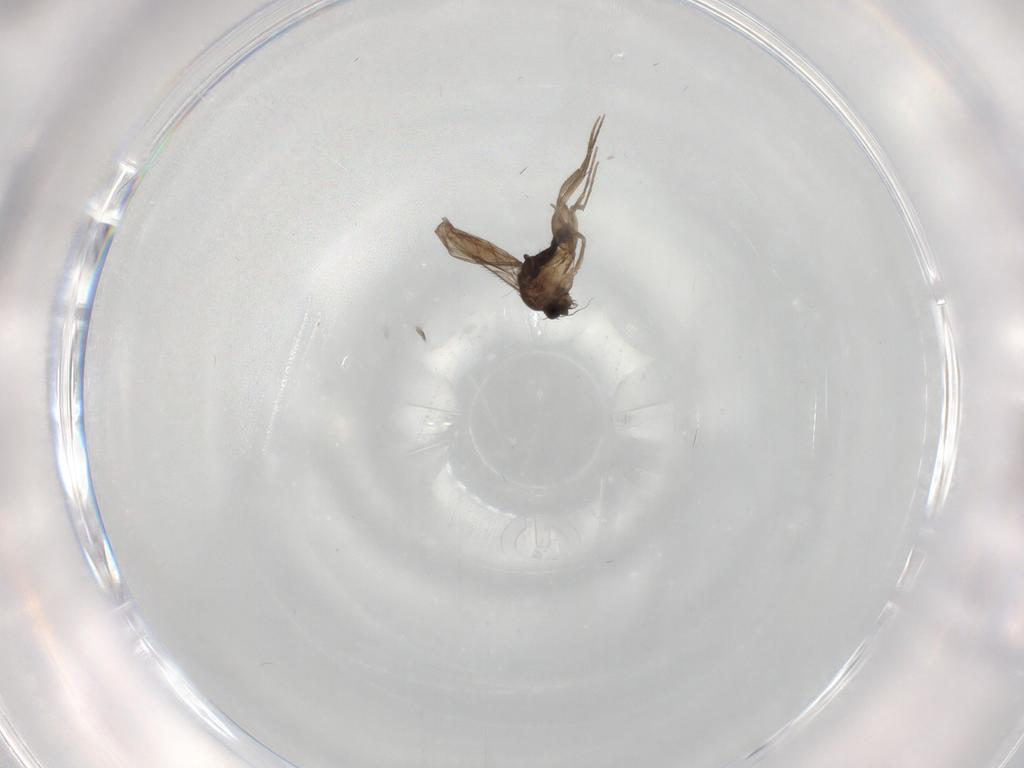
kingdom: Animalia
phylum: Arthropoda
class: Insecta
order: Diptera
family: Phoridae
